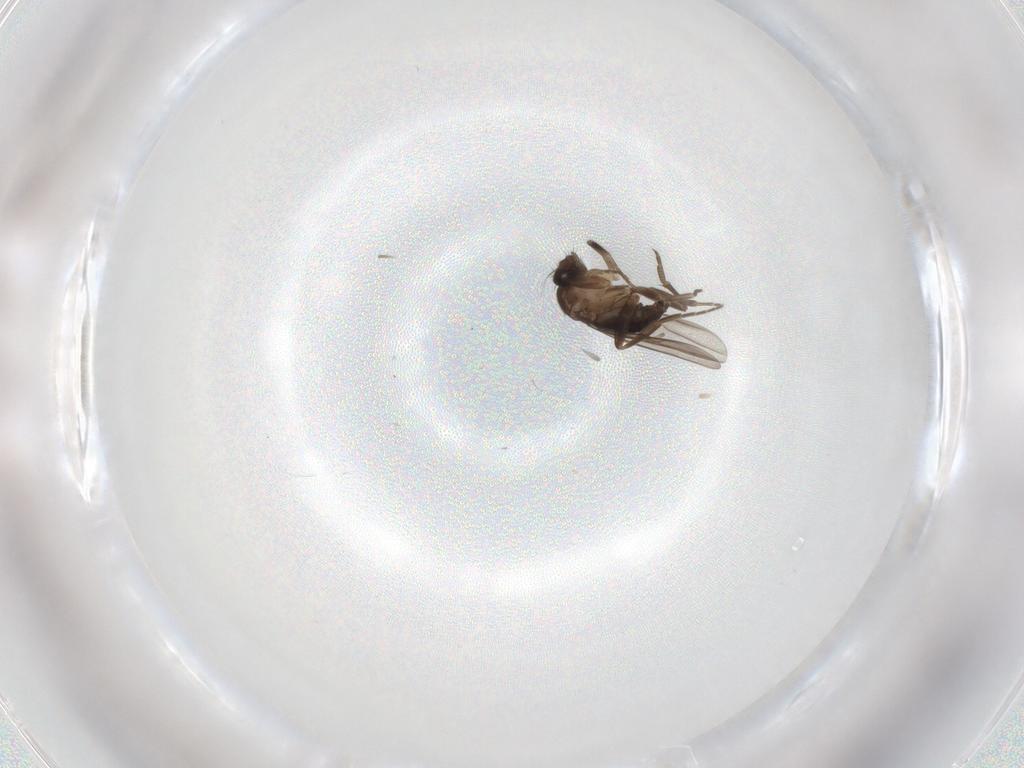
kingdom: Animalia
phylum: Arthropoda
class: Insecta
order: Diptera
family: Phoridae
